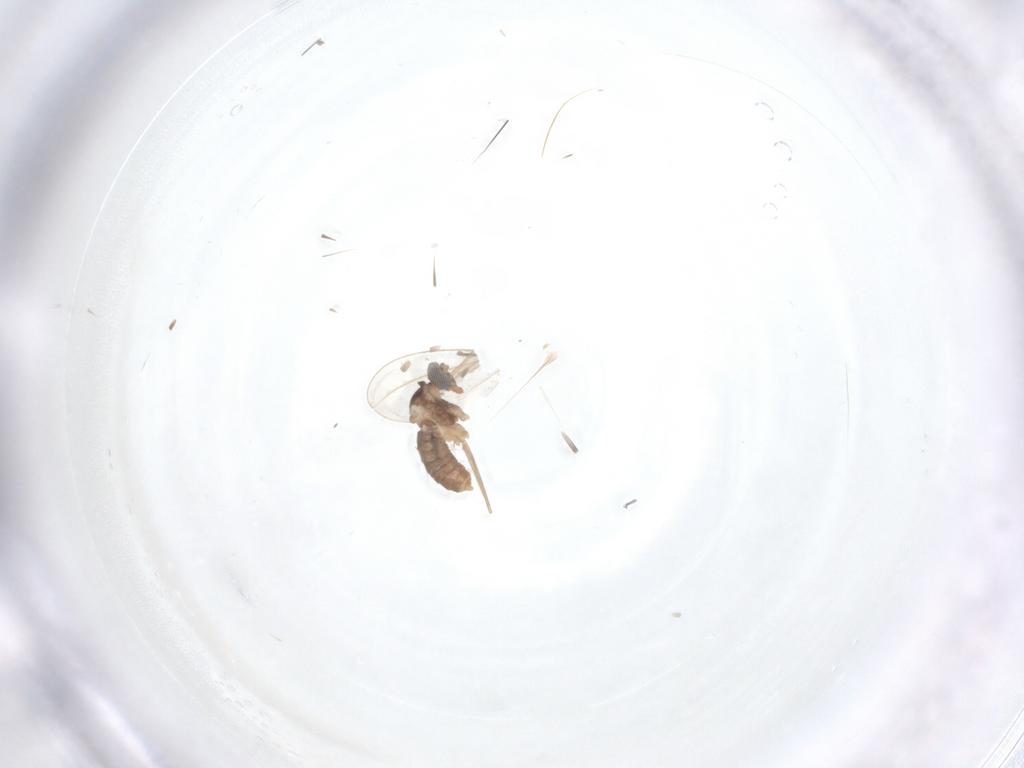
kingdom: Animalia
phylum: Arthropoda
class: Insecta
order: Diptera
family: Cecidomyiidae
